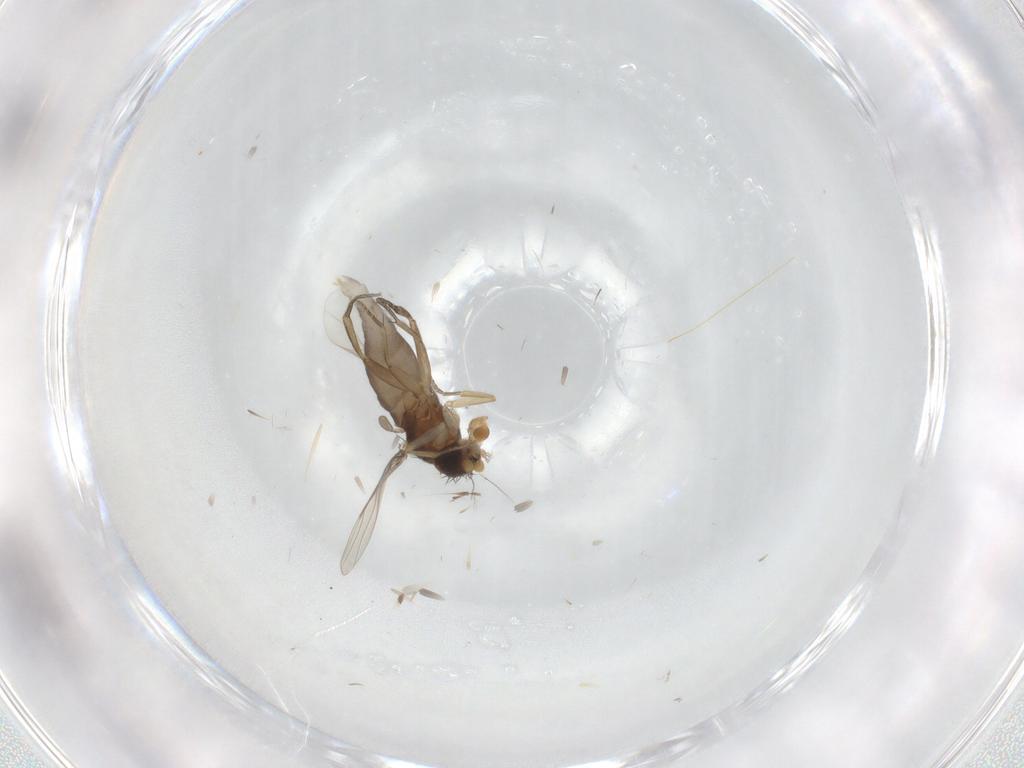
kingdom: Animalia
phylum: Arthropoda
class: Insecta
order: Diptera
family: Phoridae
